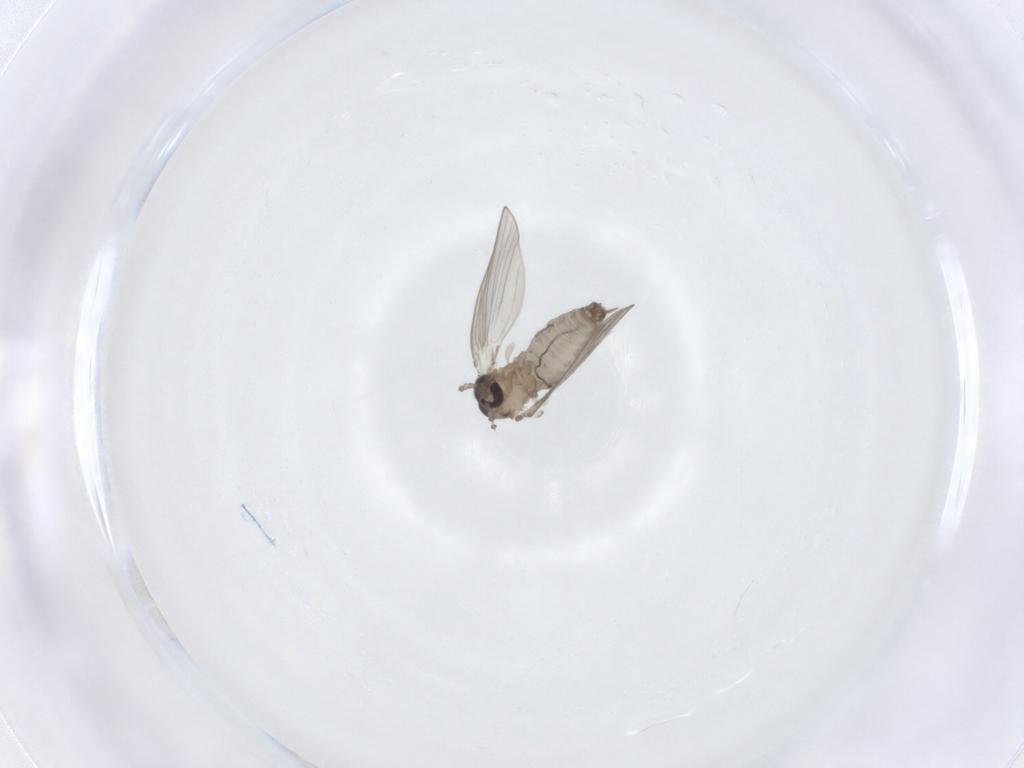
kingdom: Animalia
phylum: Arthropoda
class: Insecta
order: Diptera
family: Psychodidae
